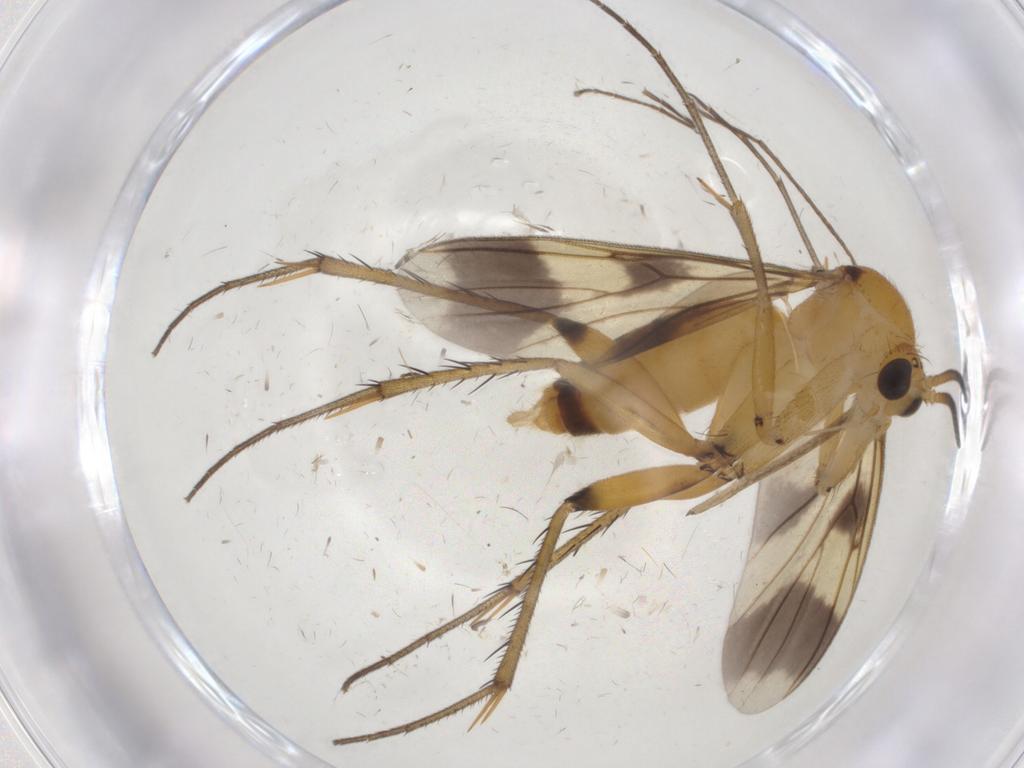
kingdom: Animalia
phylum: Arthropoda
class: Insecta
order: Diptera
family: Mycetophilidae
